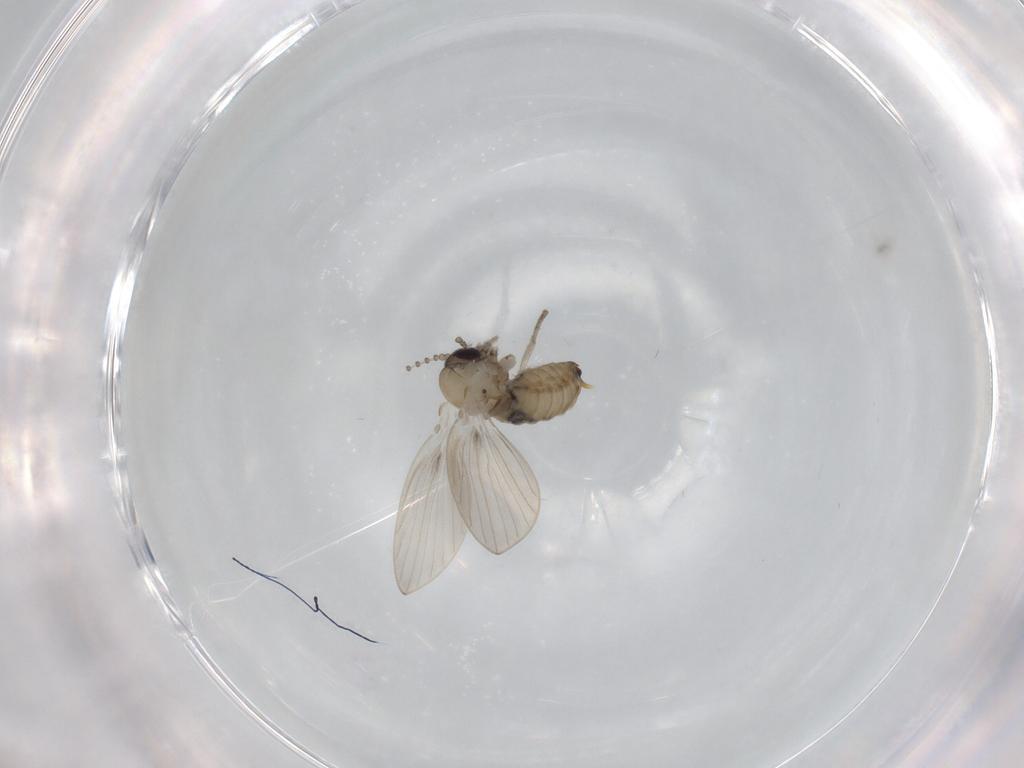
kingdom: Animalia
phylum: Arthropoda
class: Insecta
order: Diptera
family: Psychodidae
